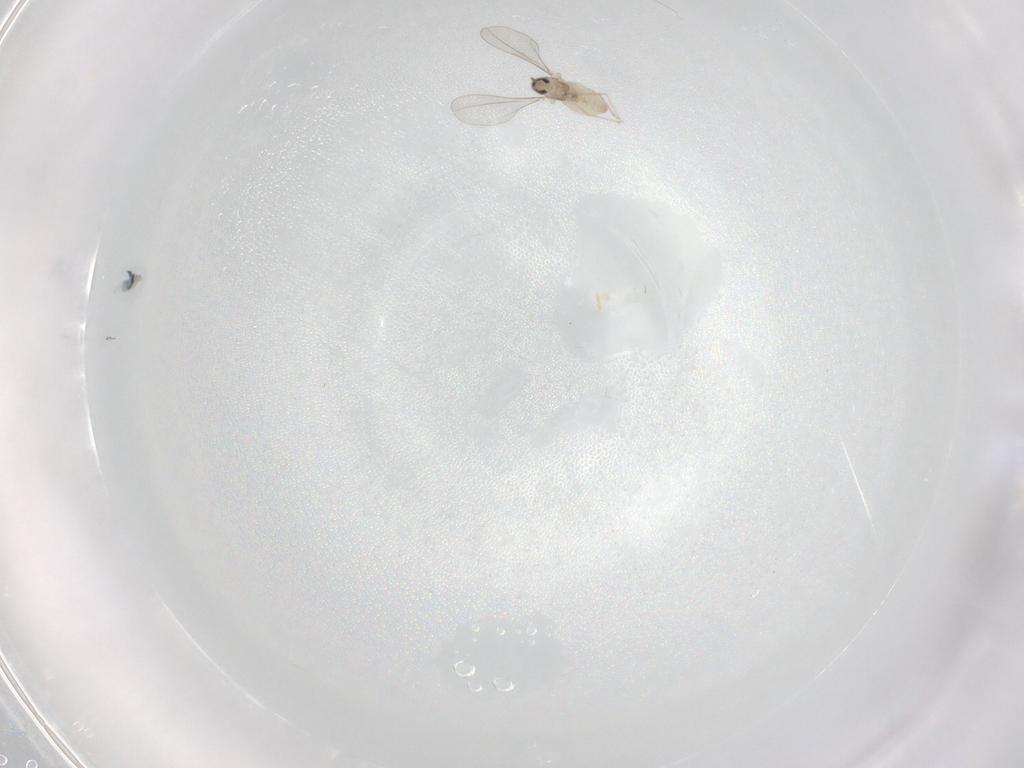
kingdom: Animalia
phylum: Arthropoda
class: Insecta
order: Diptera
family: Cecidomyiidae
